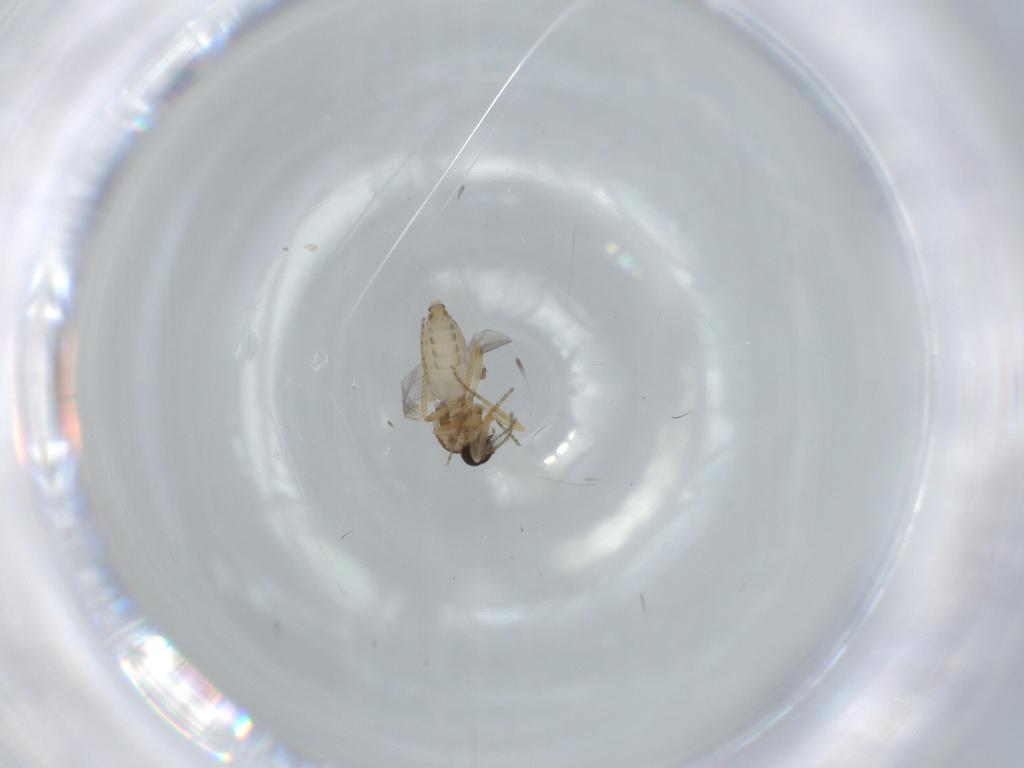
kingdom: Animalia
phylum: Arthropoda
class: Insecta
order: Diptera
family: Ceratopogonidae
